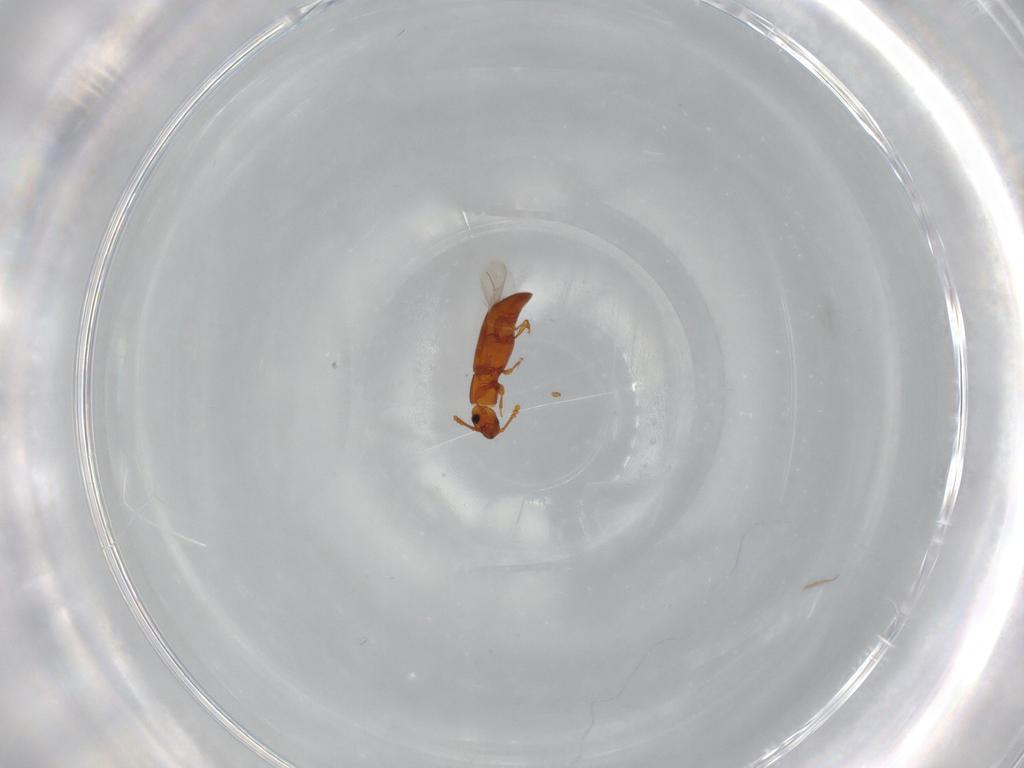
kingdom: Animalia
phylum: Arthropoda
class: Insecta
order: Coleoptera
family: Smicripidae
